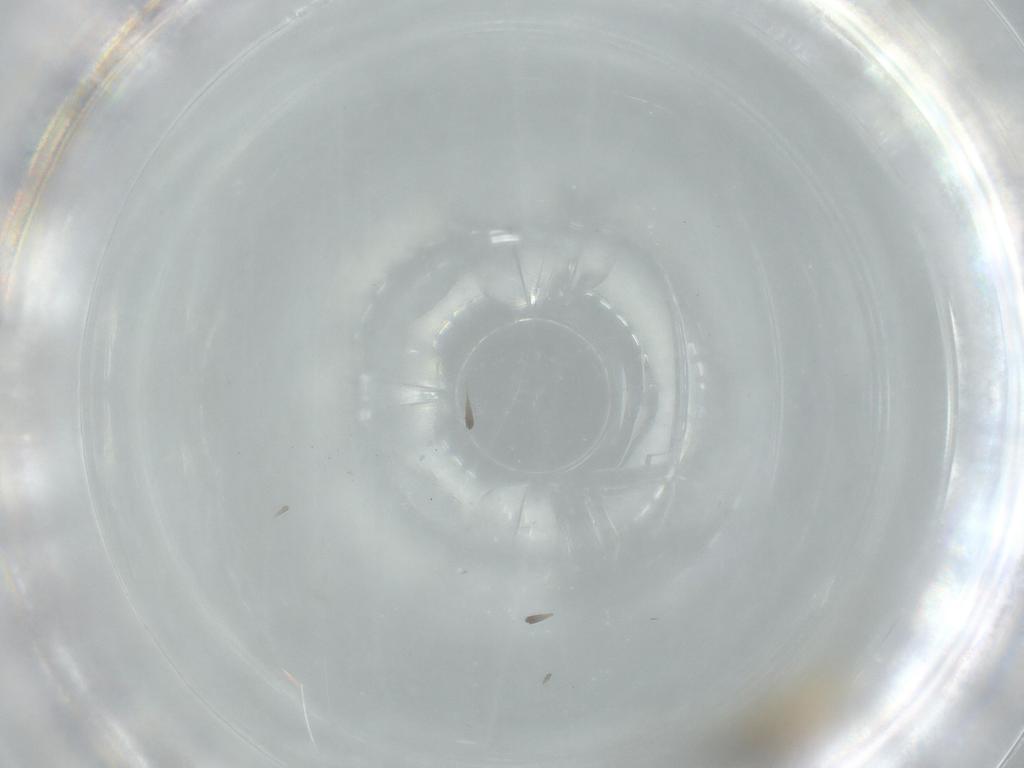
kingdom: Animalia
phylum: Arthropoda
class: Insecta
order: Diptera
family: Cecidomyiidae
